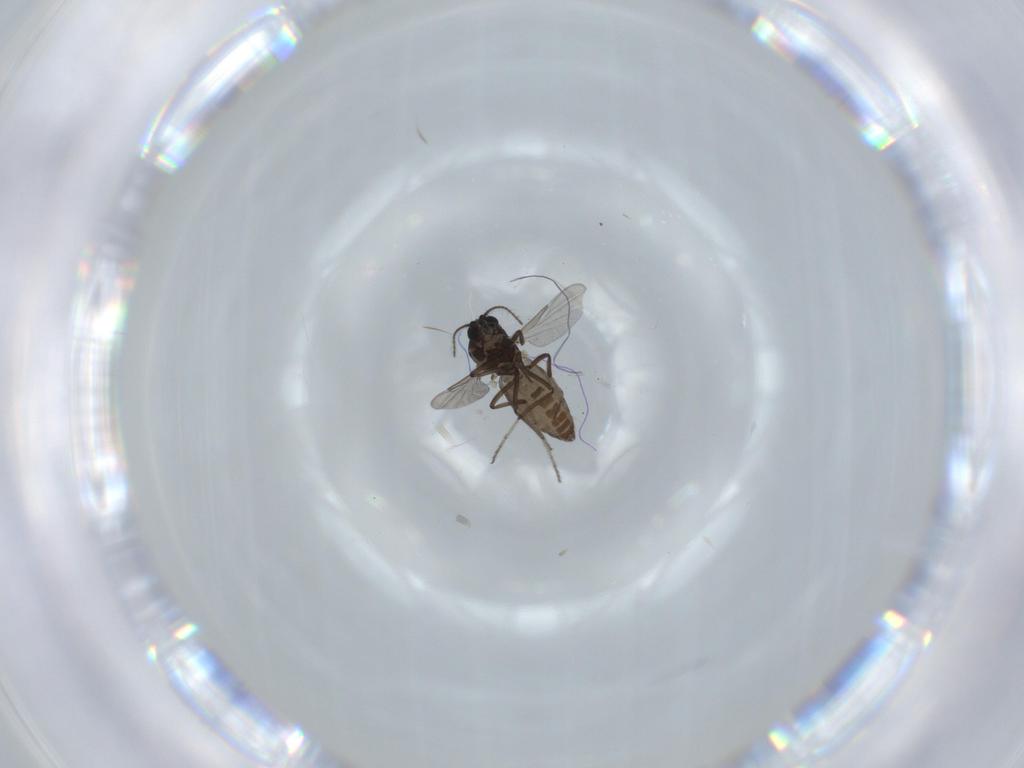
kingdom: Animalia
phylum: Arthropoda
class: Insecta
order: Diptera
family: Ceratopogonidae
